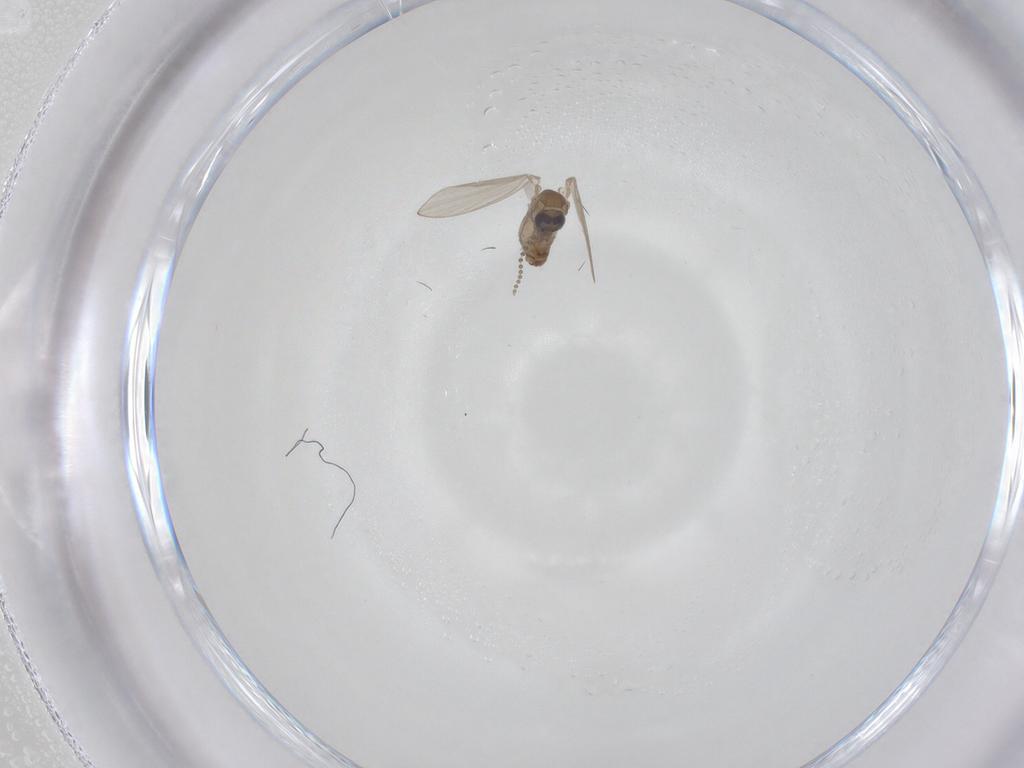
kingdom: Animalia
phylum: Arthropoda
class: Insecta
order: Diptera
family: Psychodidae
